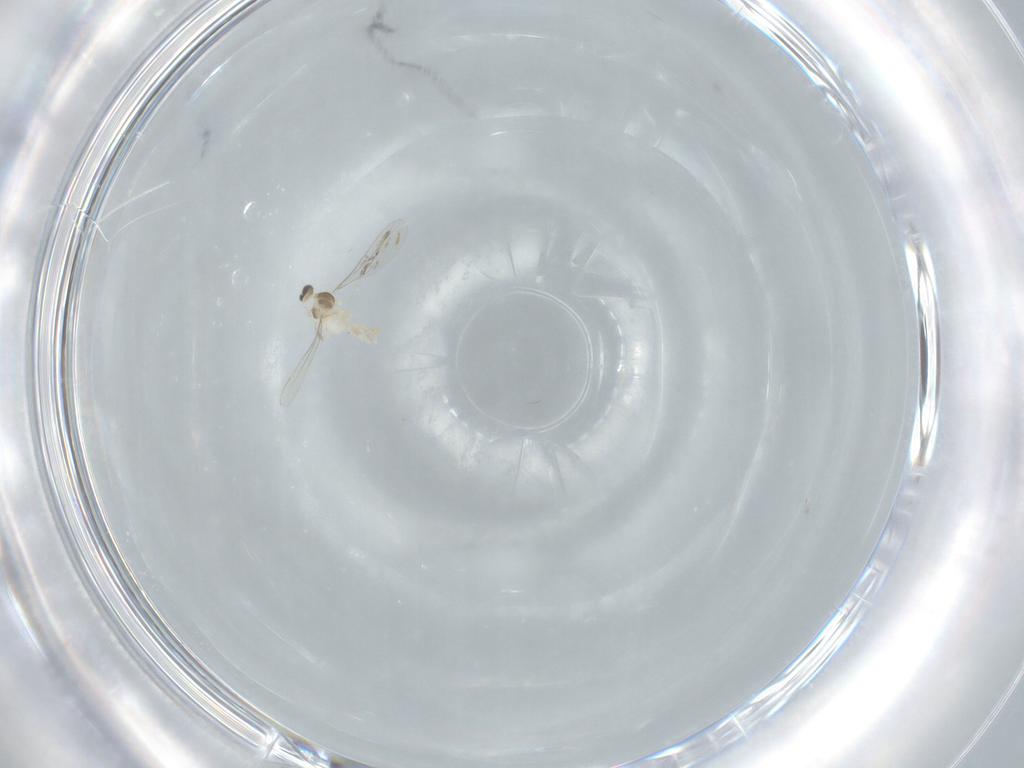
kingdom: Animalia
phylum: Arthropoda
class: Insecta
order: Diptera
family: Cecidomyiidae
